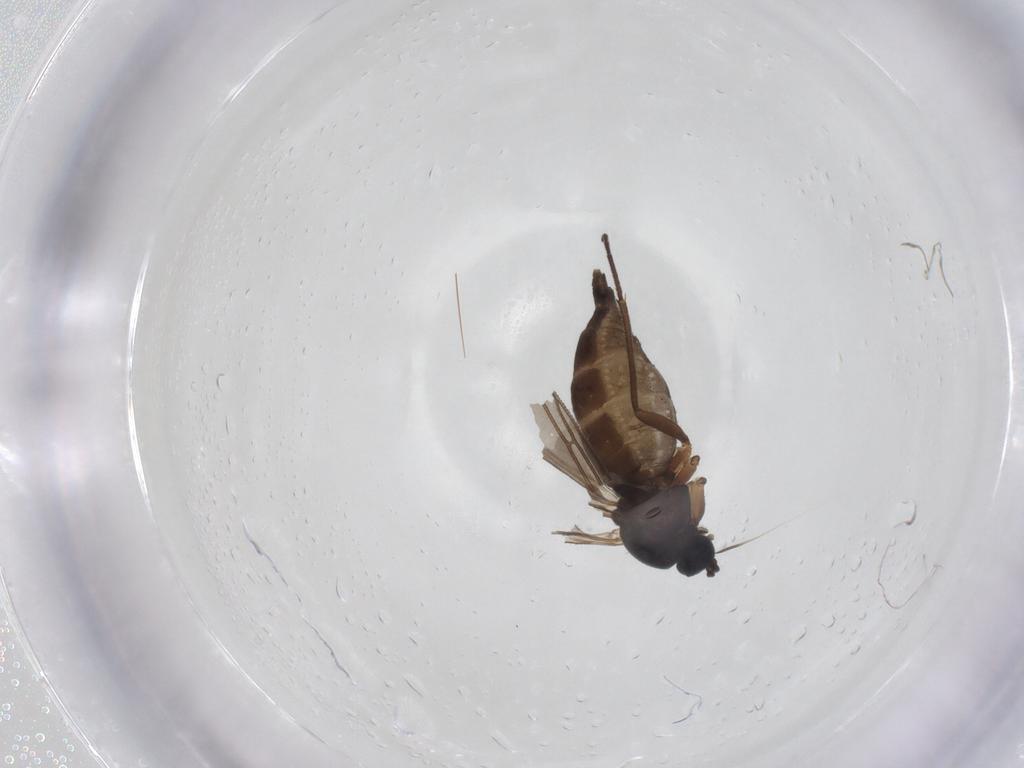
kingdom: Animalia
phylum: Arthropoda
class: Insecta
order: Diptera
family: Sciaridae
